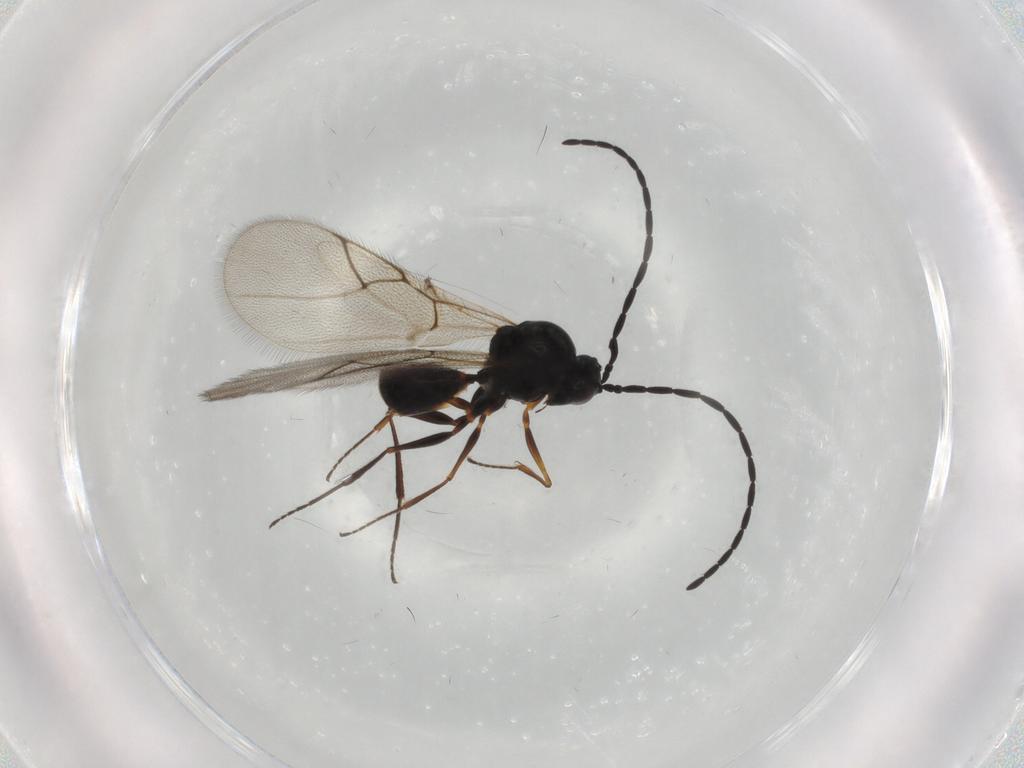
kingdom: Animalia
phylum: Arthropoda
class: Insecta
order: Hymenoptera
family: Figitidae
